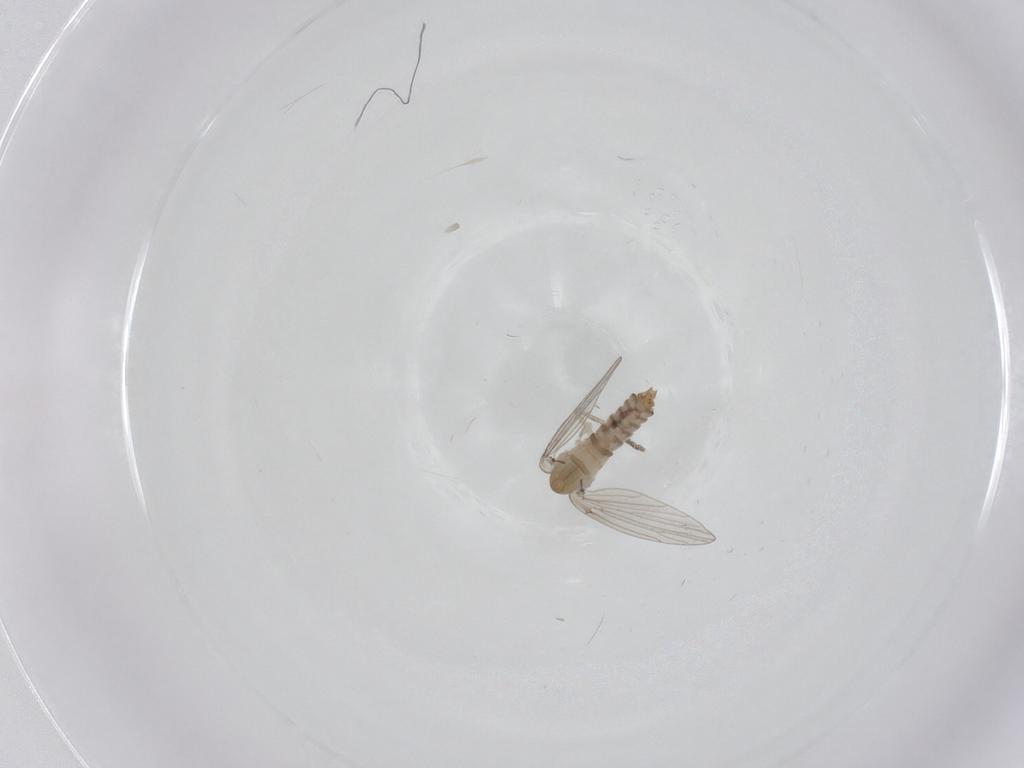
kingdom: Animalia
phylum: Arthropoda
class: Insecta
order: Diptera
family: Psychodidae
